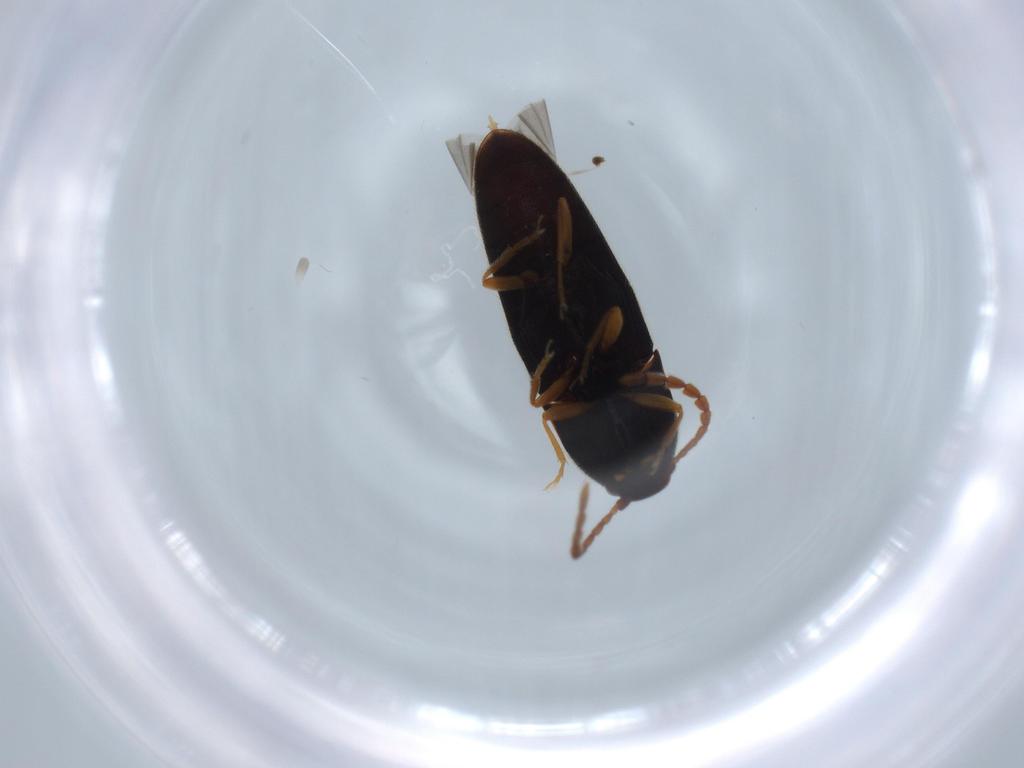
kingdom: Animalia
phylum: Arthropoda
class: Insecta
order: Coleoptera
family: Elateridae
